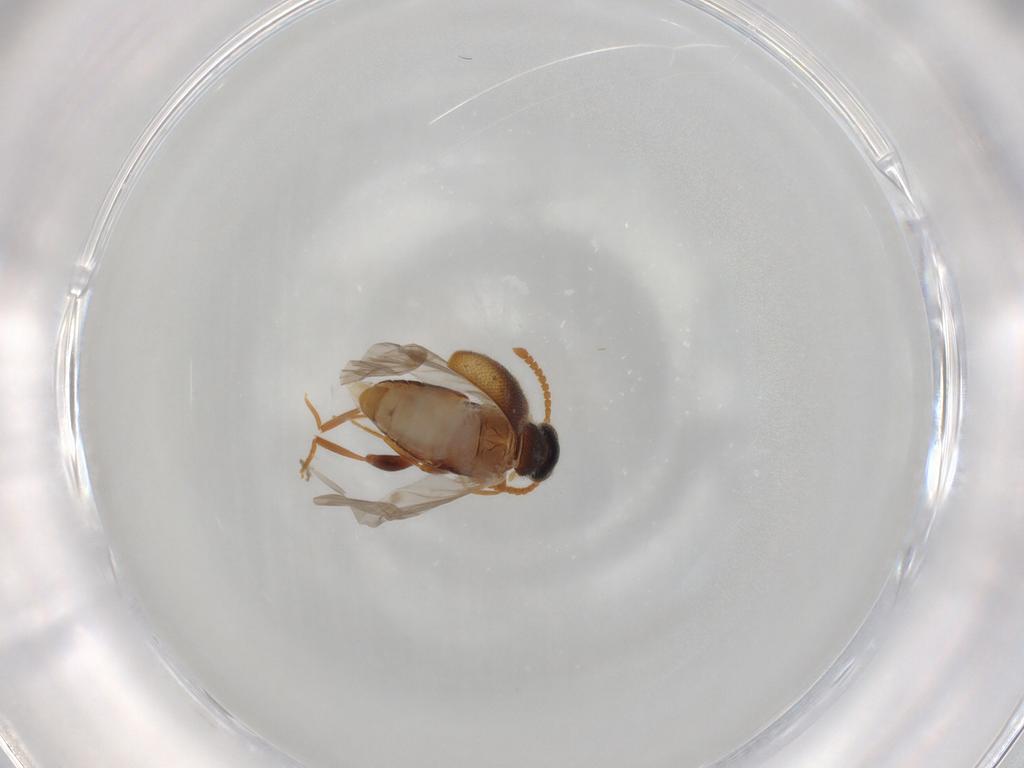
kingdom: Animalia
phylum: Arthropoda
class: Insecta
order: Coleoptera
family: Aderidae
